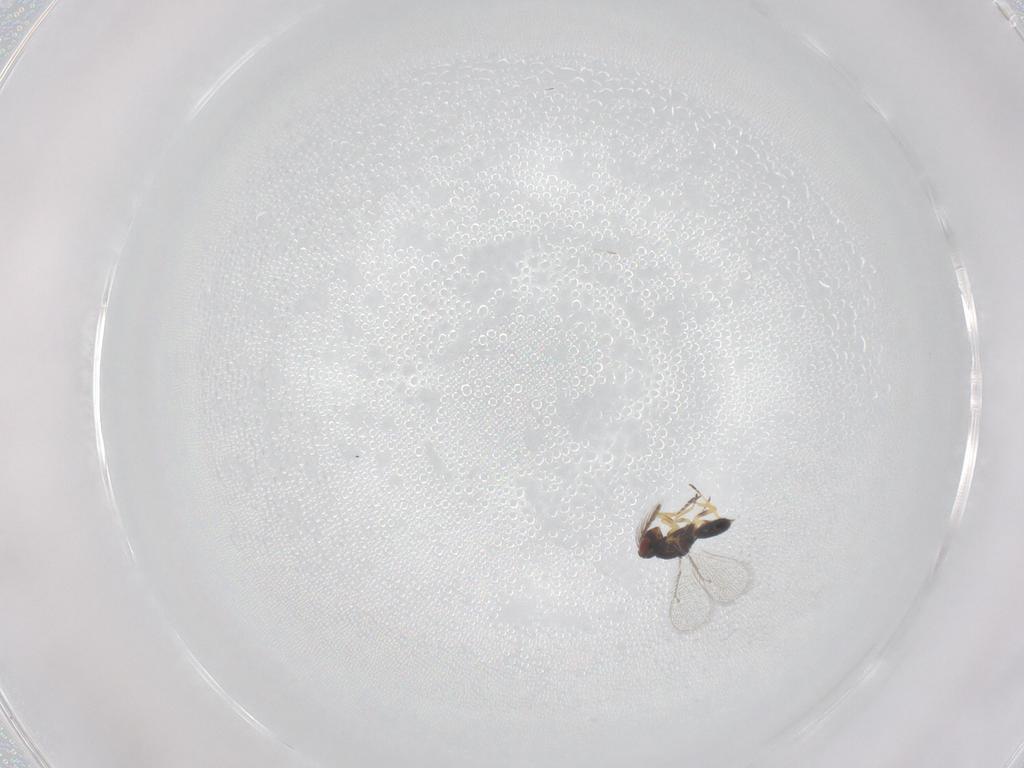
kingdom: Animalia
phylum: Arthropoda
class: Insecta
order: Hymenoptera
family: Eulophidae
